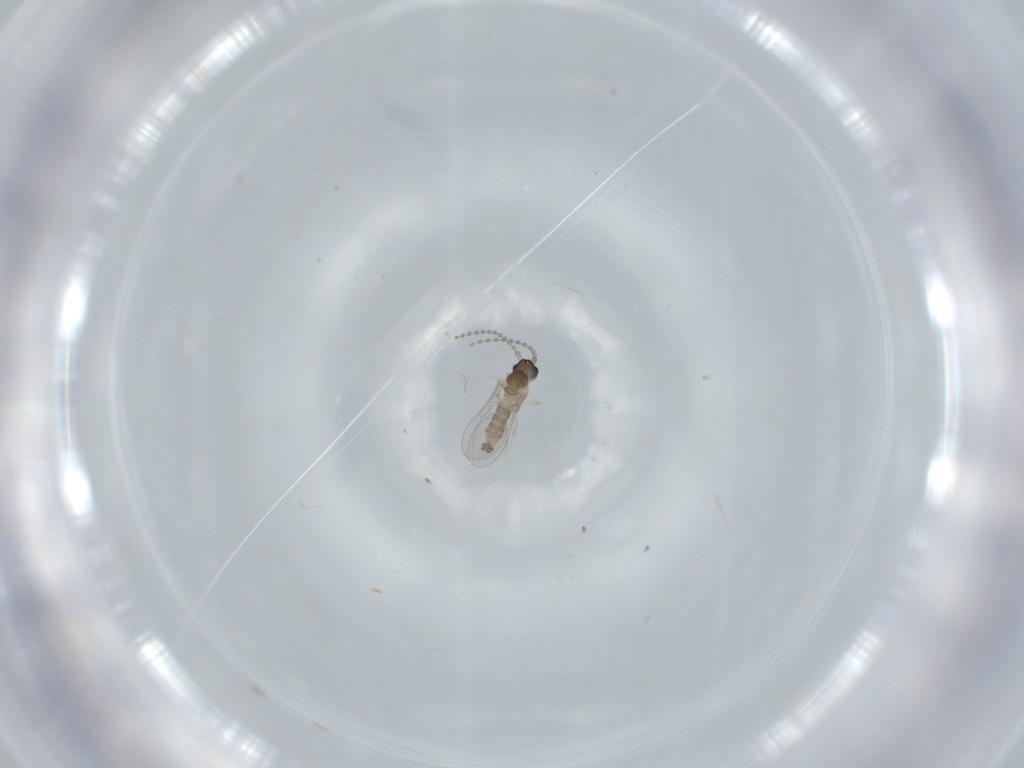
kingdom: Animalia
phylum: Arthropoda
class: Insecta
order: Diptera
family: Cecidomyiidae
